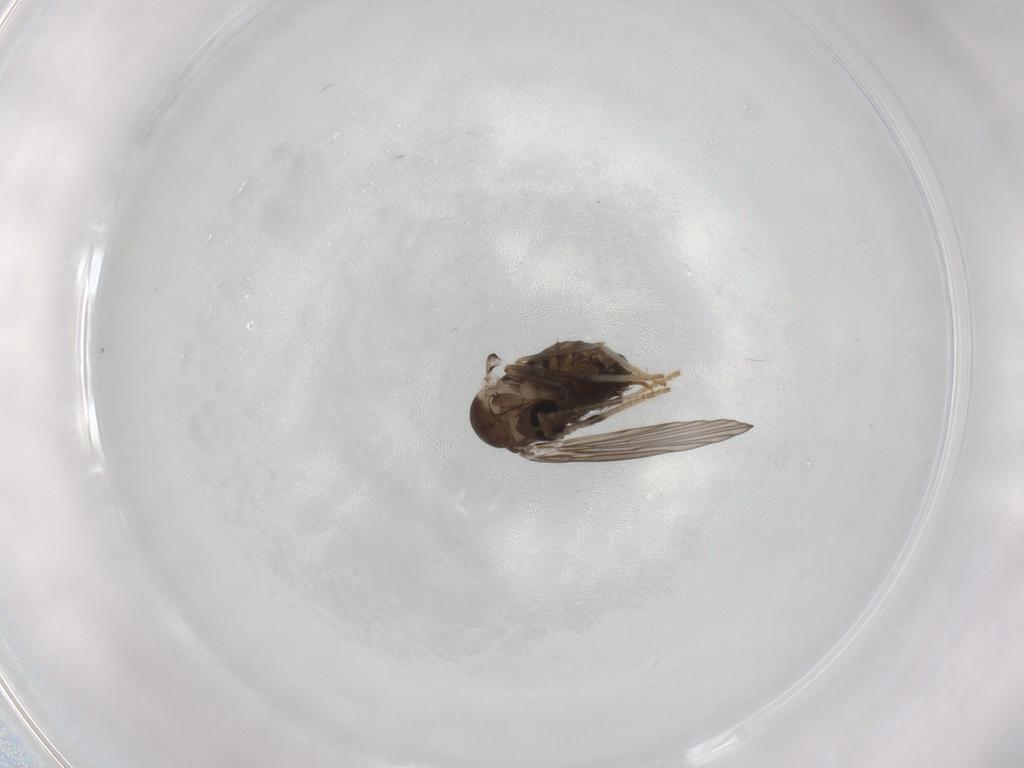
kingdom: Animalia
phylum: Arthropoda
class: Insecta
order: Diptera
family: Psychodidae
